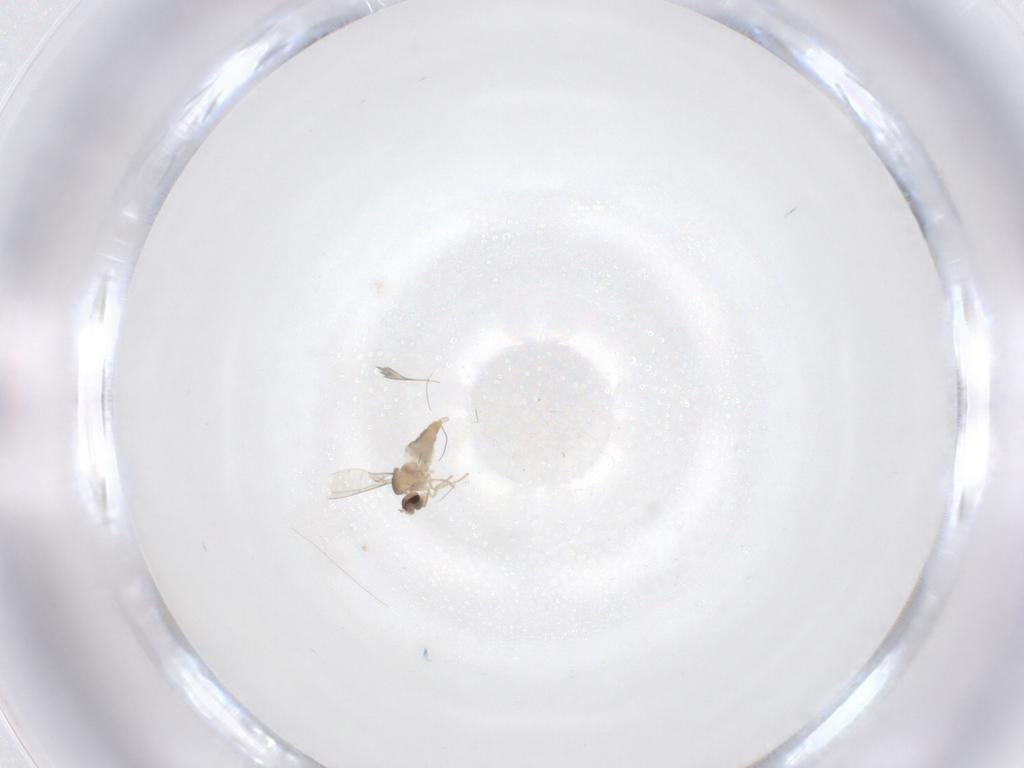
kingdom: Animalia
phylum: Arthropoda
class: Insecta
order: Diptera
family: Cecidomyiidae
